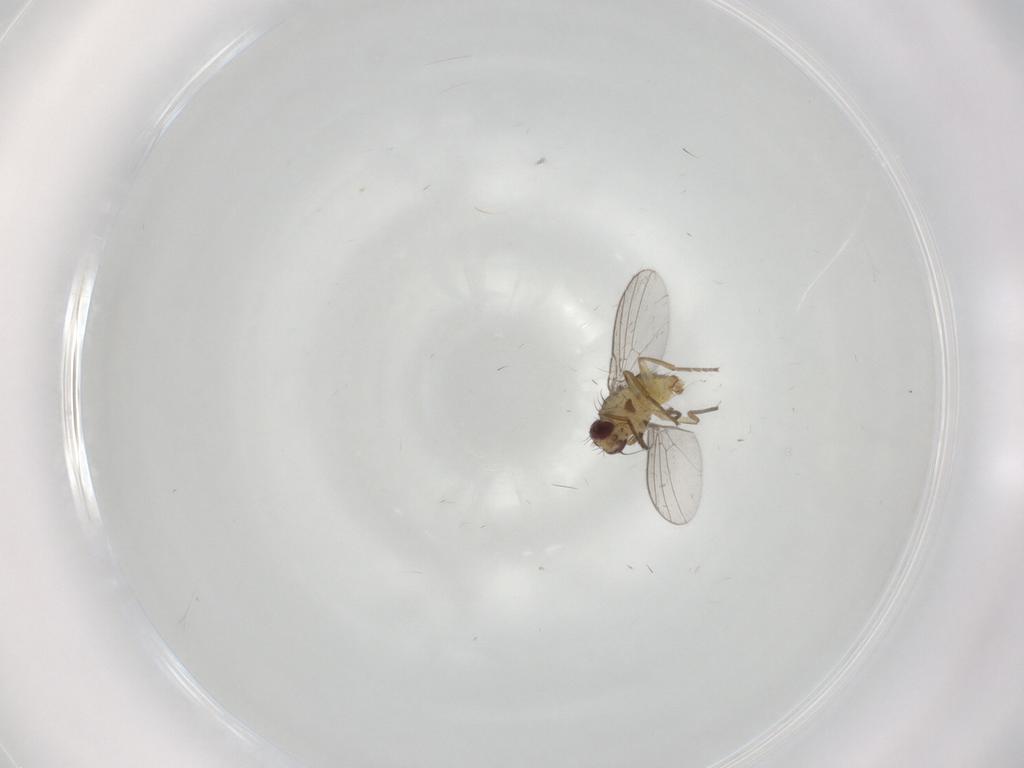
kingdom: Animalia
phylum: Arthropoda
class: Insecta
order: Diptera
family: Agromyzidae
